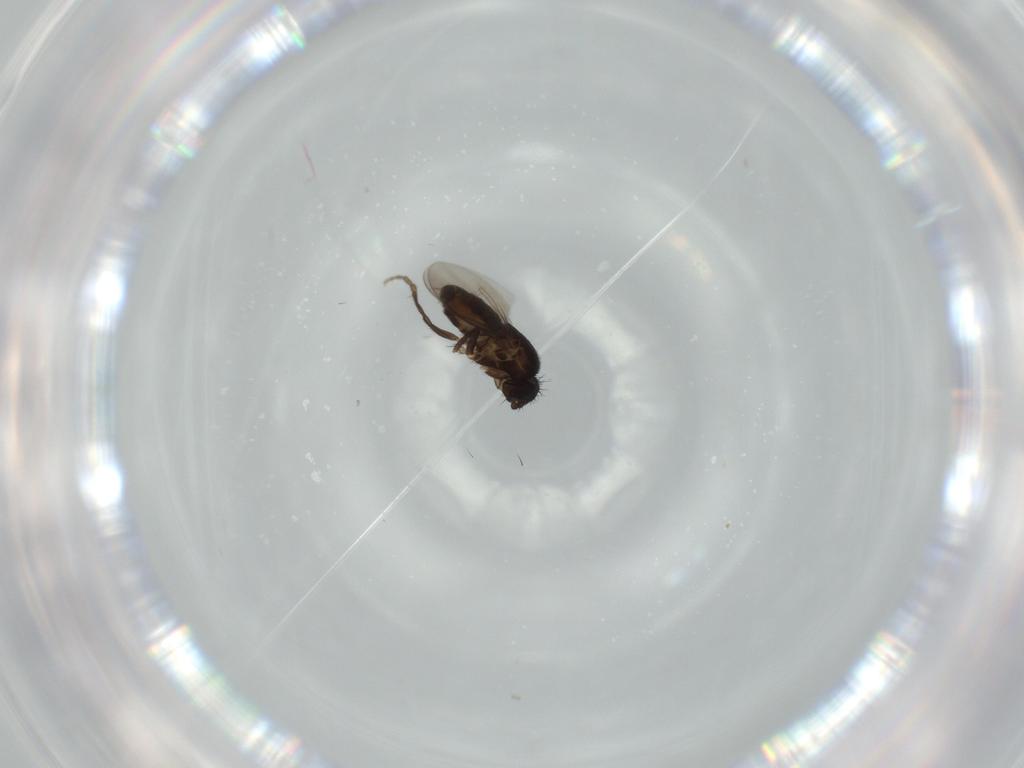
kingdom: Animalia
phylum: Arthropoda
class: Insecta
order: Diptera
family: Sphaeroceridae
